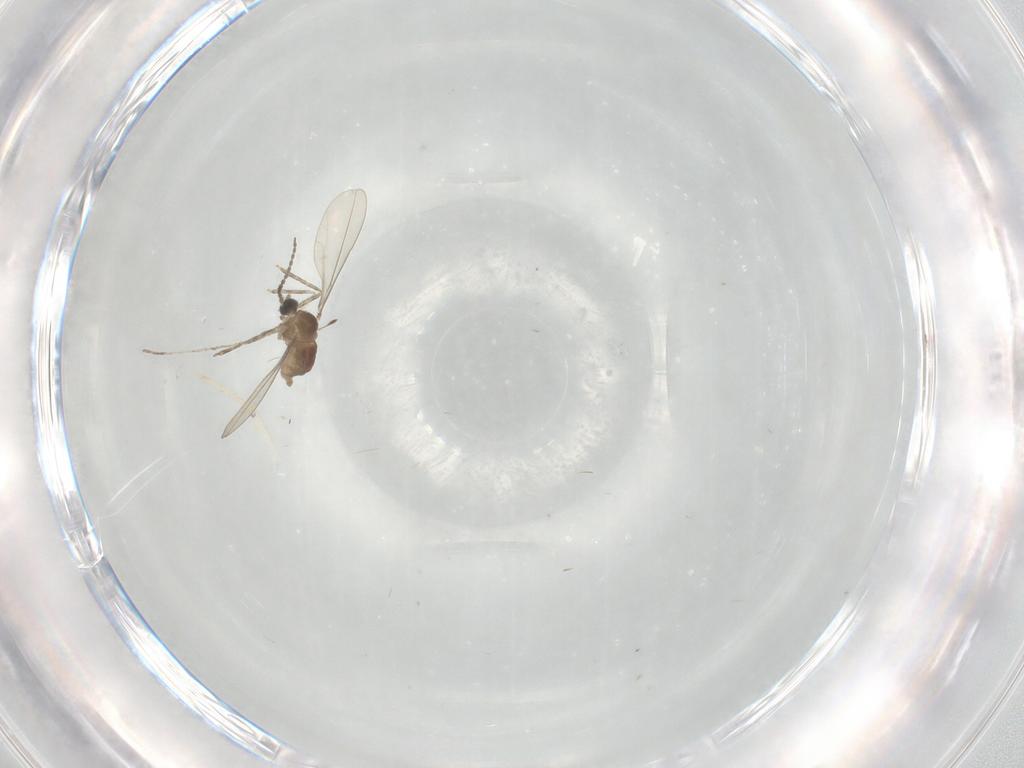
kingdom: Animalia
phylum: Arthropoda
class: Insecta
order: Diptera
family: Cecidomyiidae
